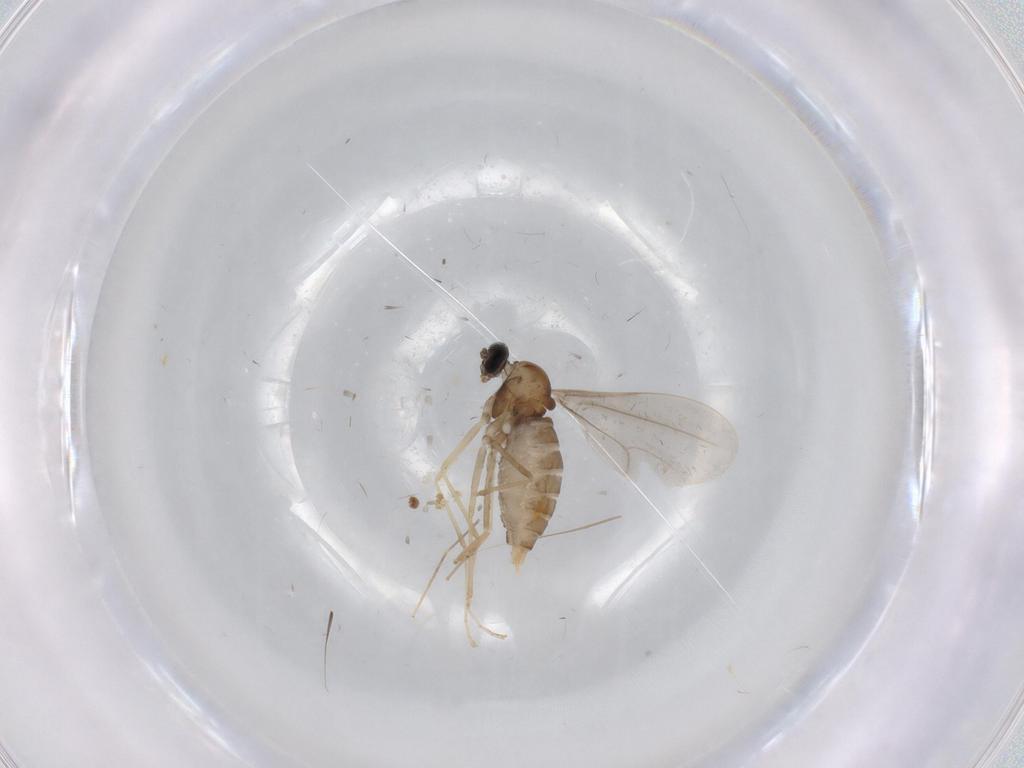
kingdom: Animalia
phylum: Arthropoda
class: Insecta
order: Diptera
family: Cecidomyiidae
